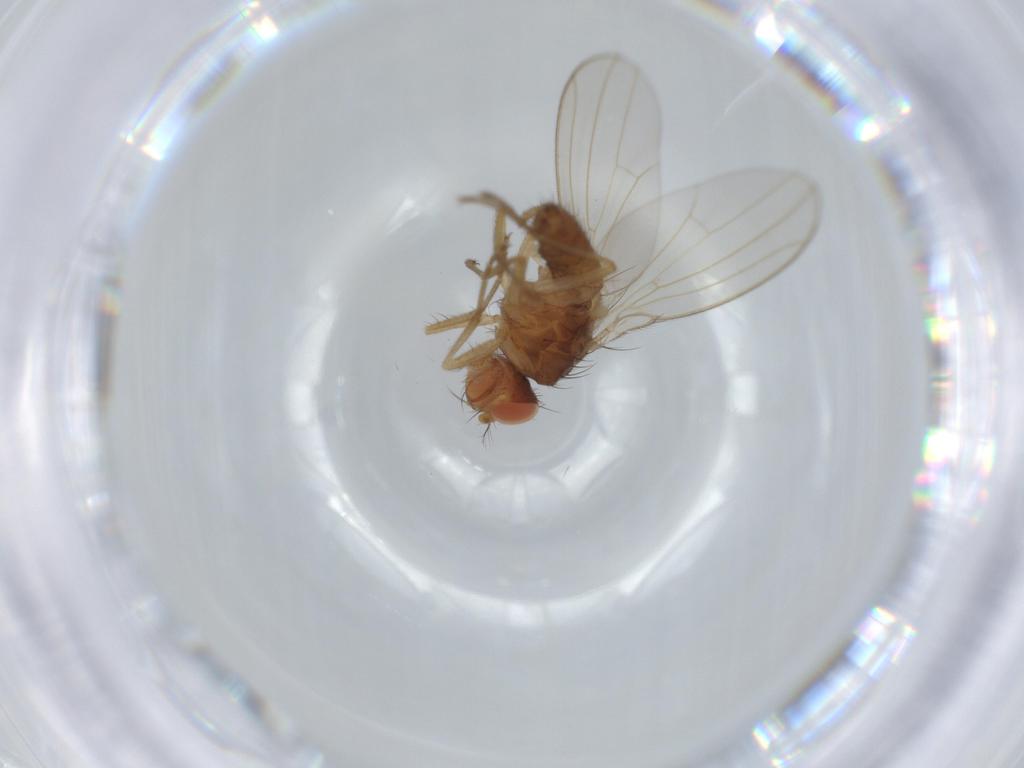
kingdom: Animalia
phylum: Arthropoda
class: Insecta
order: Diptera
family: Drosophilidae
